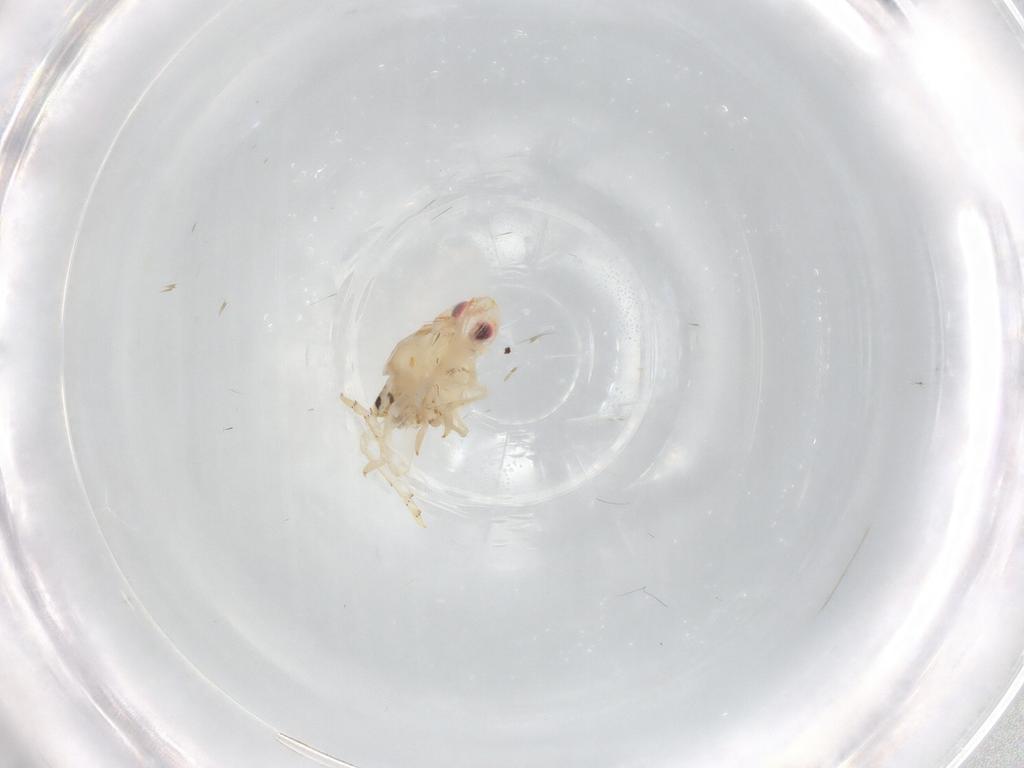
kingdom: Animalia
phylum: Arthropoda
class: Insecta
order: Hemiptera
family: Flatidae
